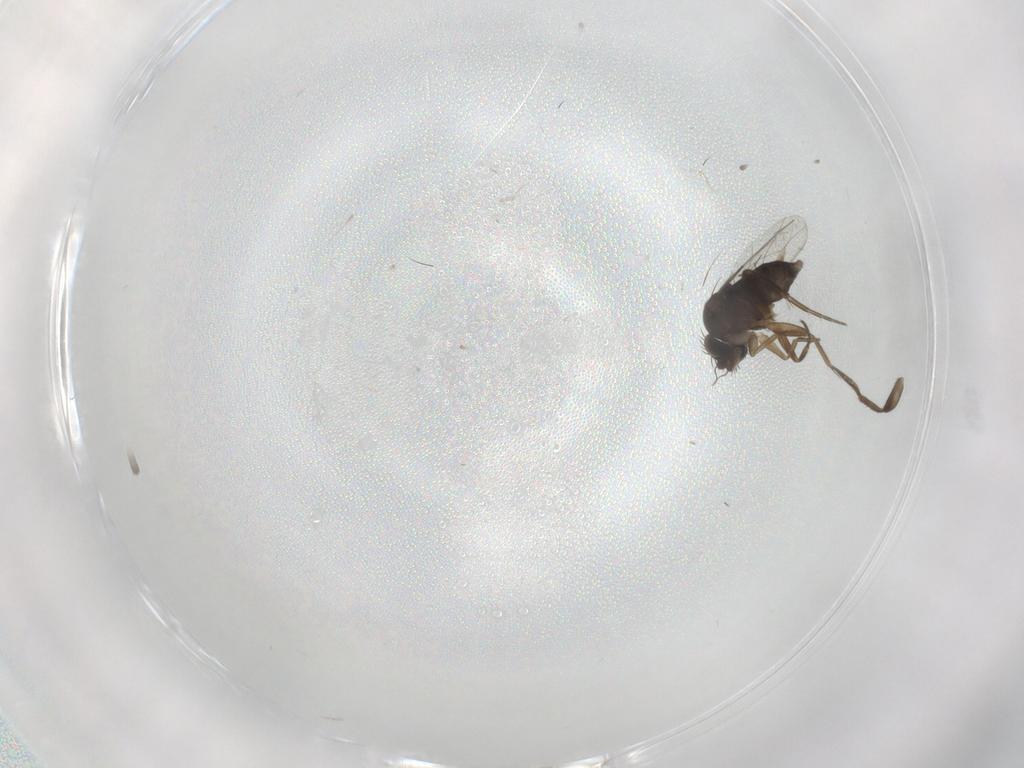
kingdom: Animalia
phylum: Arthropoda
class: Insecta
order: Diptera
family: Phoridae
